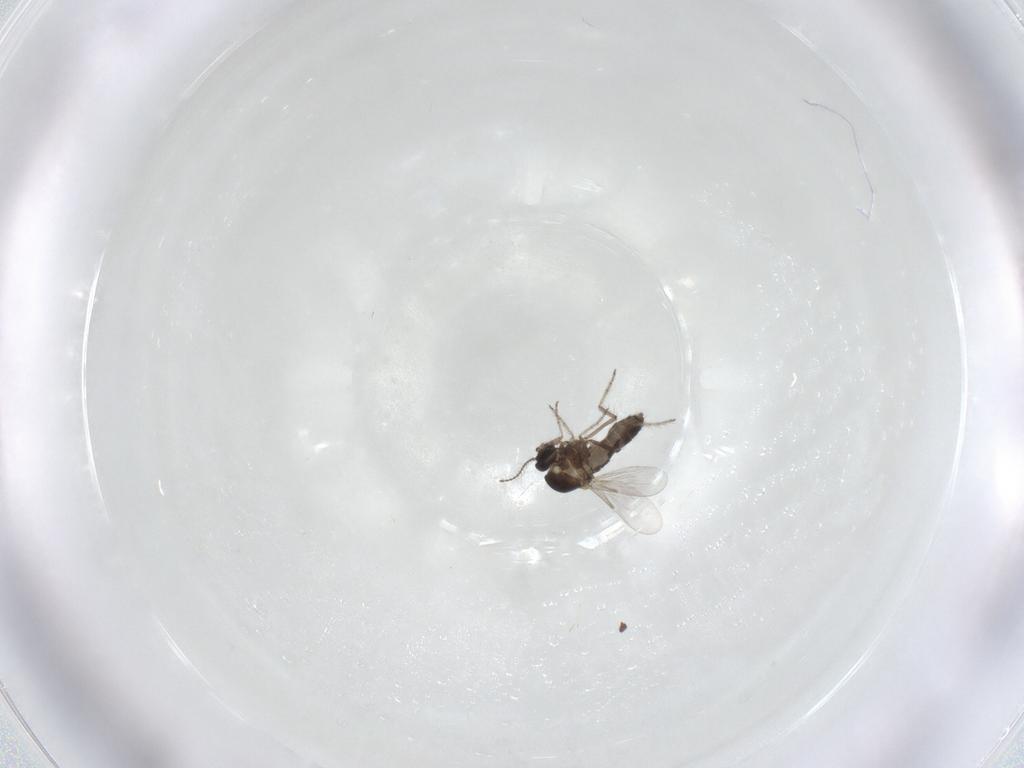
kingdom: Animalia
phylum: Arthropoda
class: Insecta
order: Diptera
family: Ceratopogonidae
